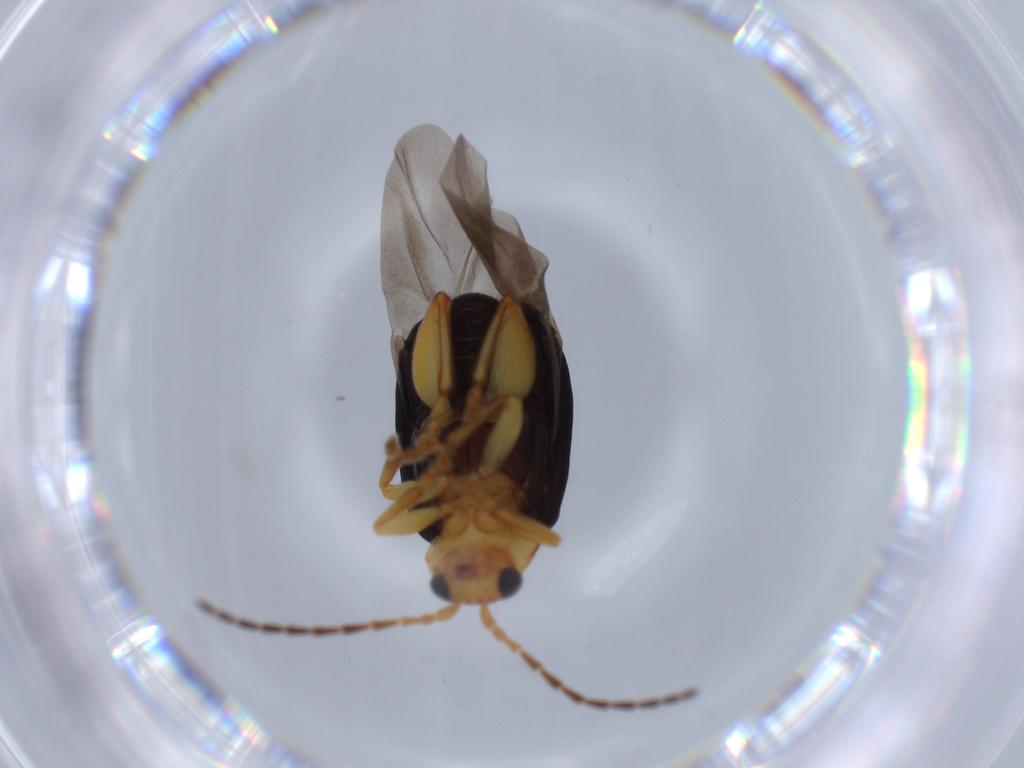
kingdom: Animalia
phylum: Arthropoda
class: Insecta
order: Coleoptera
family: Chrysomelidae
